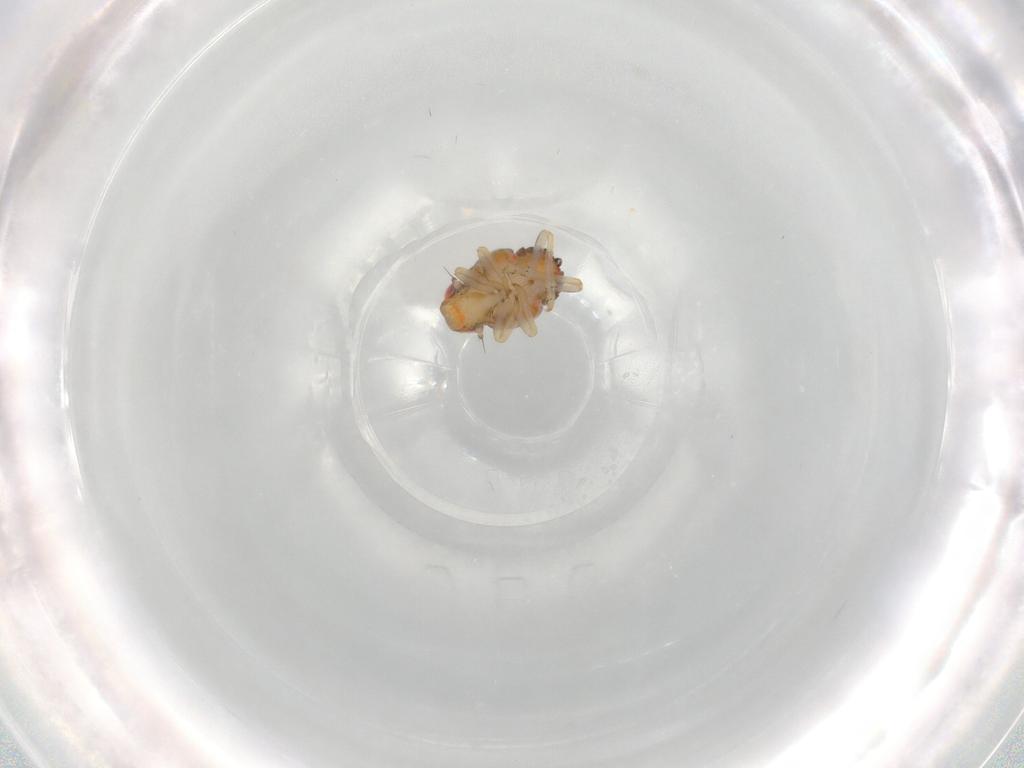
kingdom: Animalia
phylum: Arthropoda
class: Insecta
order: Hemiptera
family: Issidae
